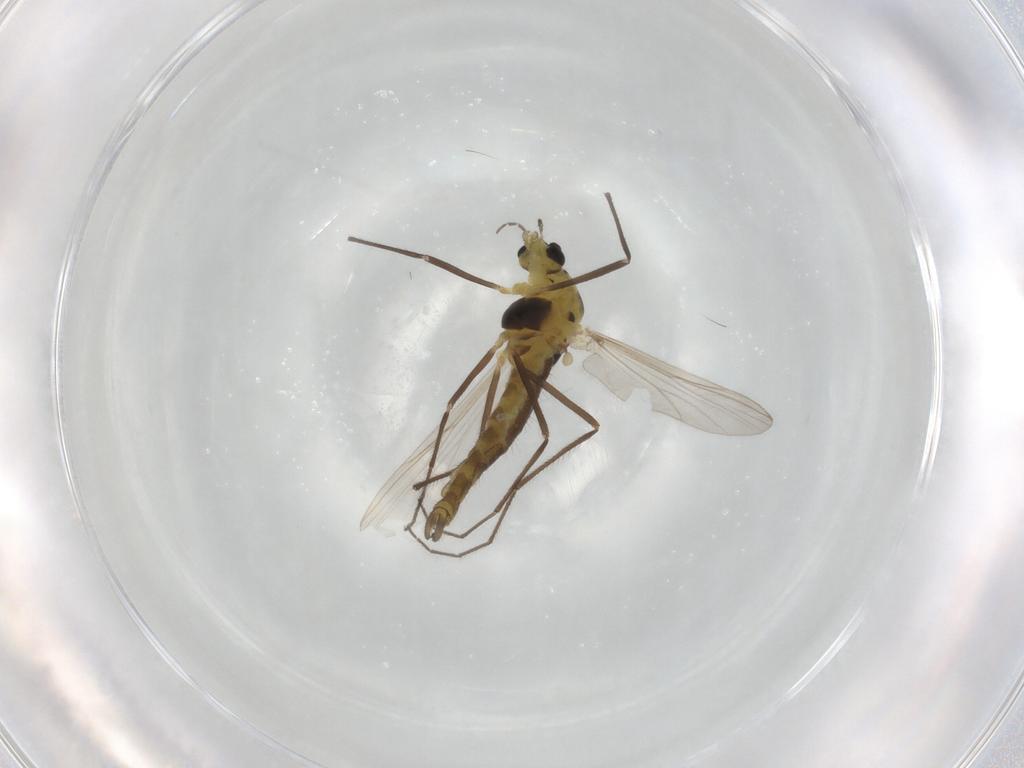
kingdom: Animalia
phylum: Arthropoda
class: Insecta
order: Diptera
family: Chironomidae
